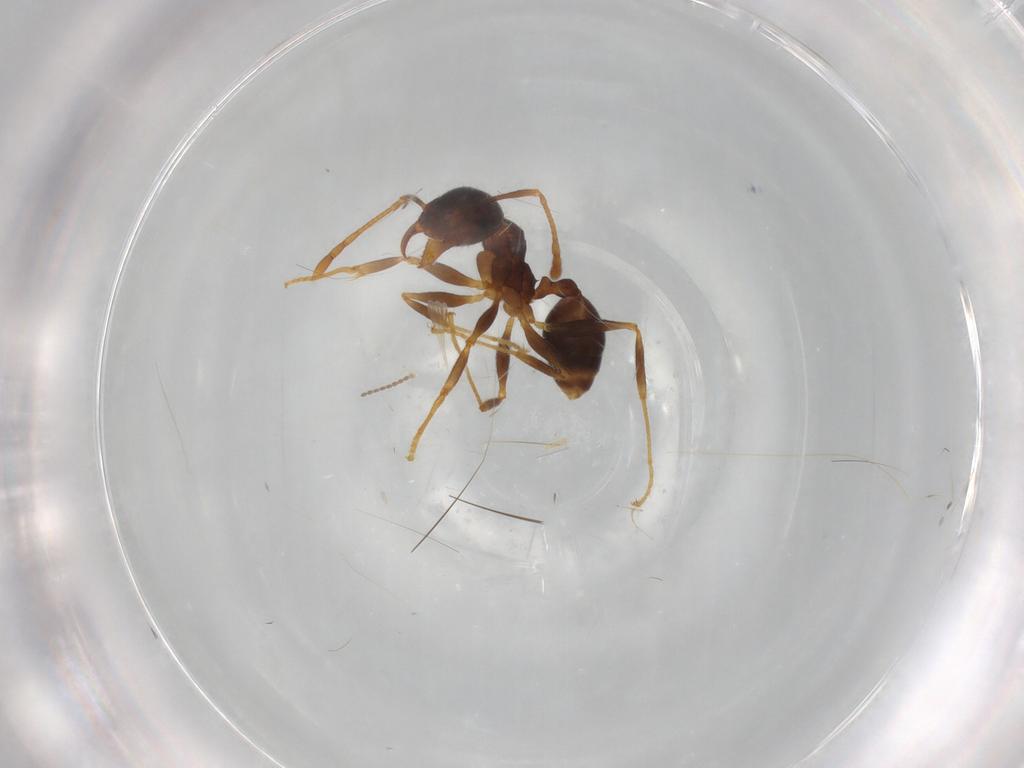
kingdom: Animalia
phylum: Arthropoda
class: Insecta
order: Hymenoptera
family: Braconidae
